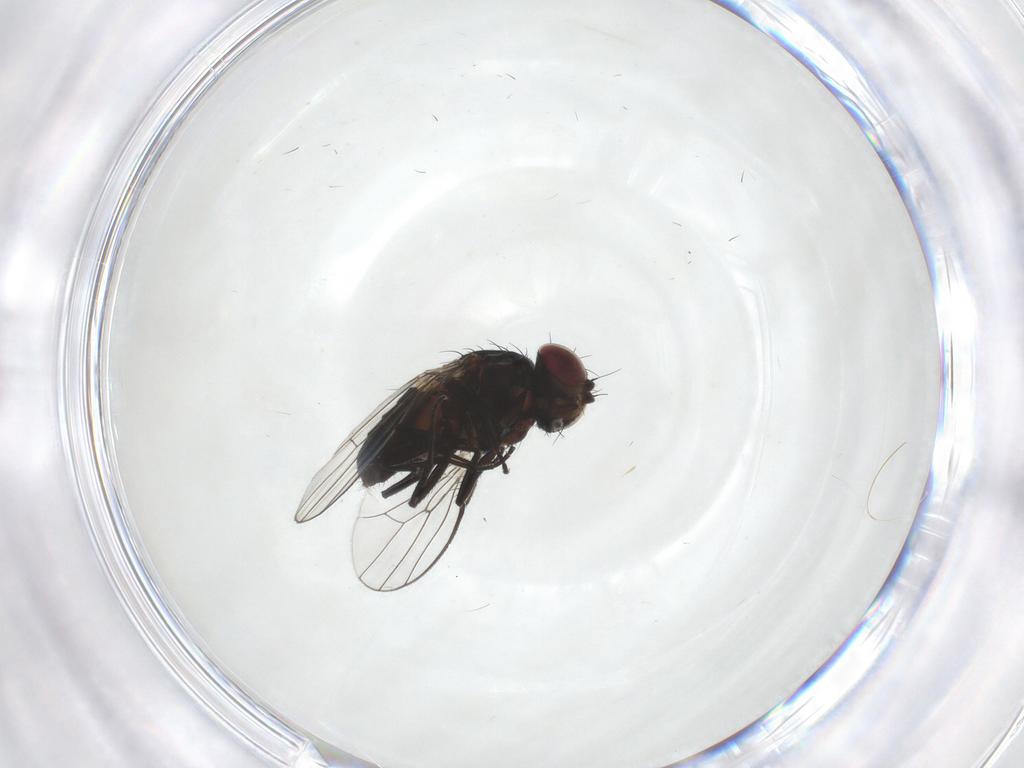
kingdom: Animalia
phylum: Arthropoda
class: Insecta
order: Diptera
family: Carnidae
